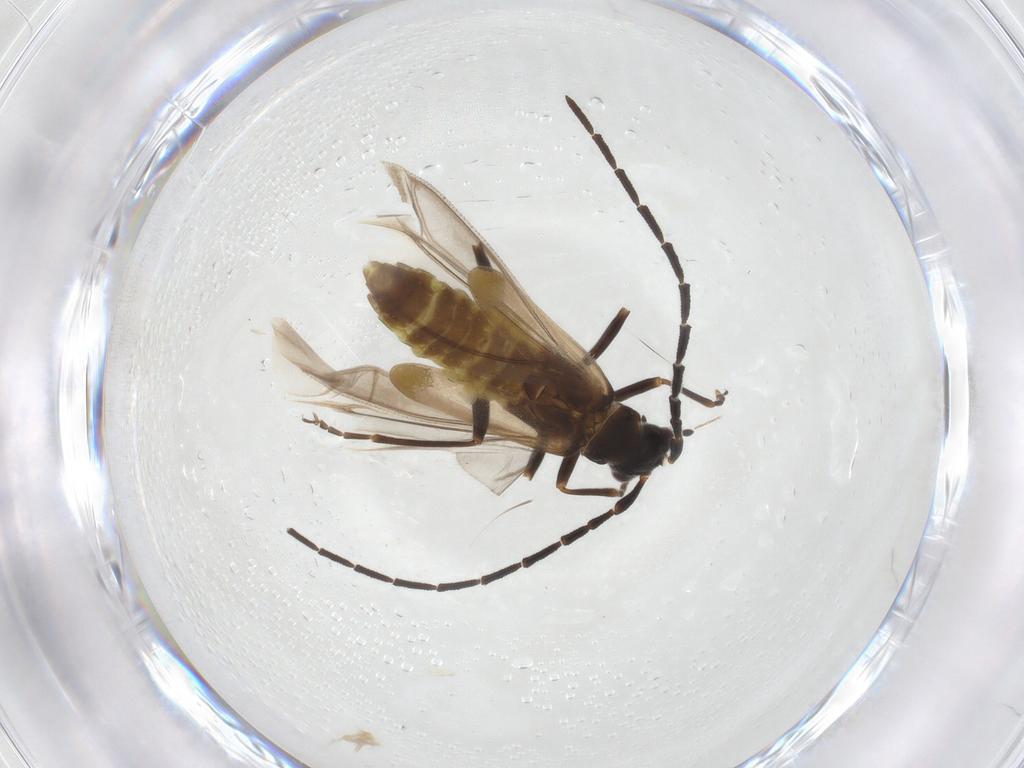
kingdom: Animalia
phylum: Arthropoda
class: Insecta
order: Coleoptera
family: Cantharidae
